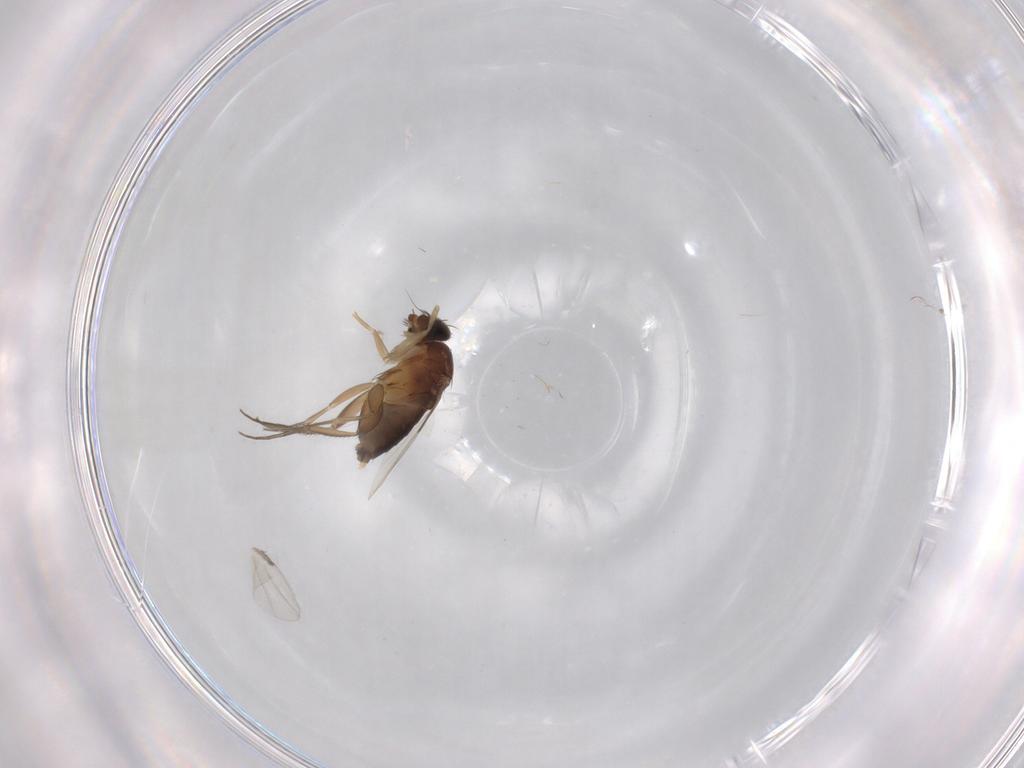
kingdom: Animalia
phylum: Arthropoda
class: Insecta
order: Diptera
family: Phoridae
